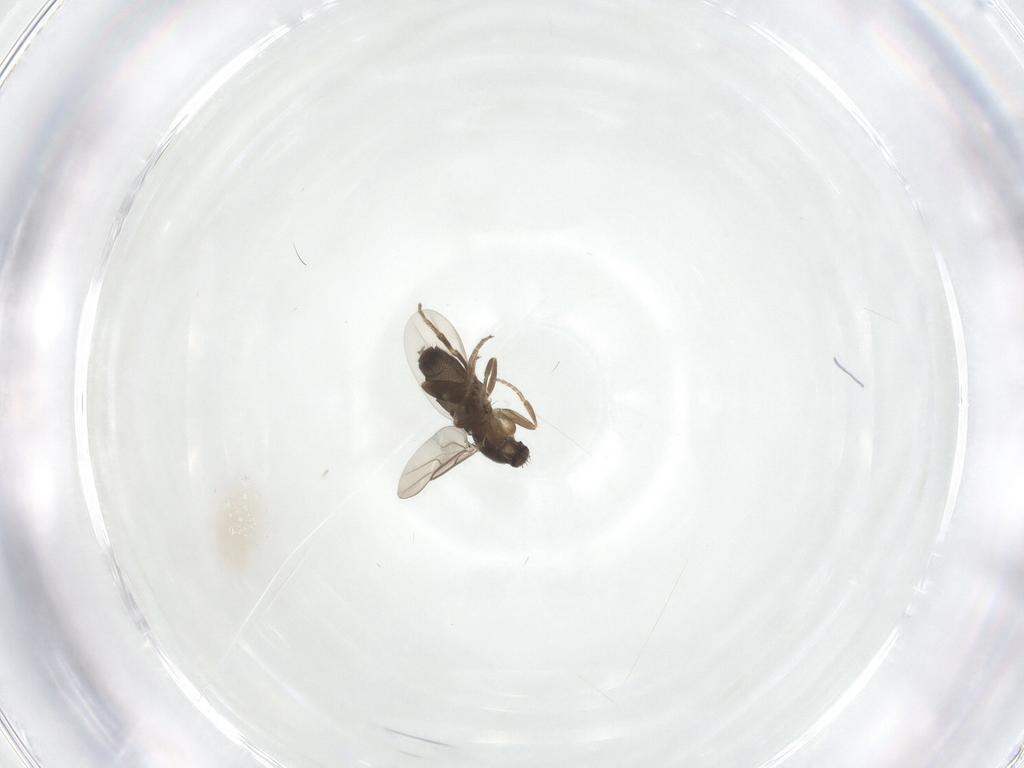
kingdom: Animalia
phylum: Arthropoda
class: Insecta
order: Diptera
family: Phoridae
